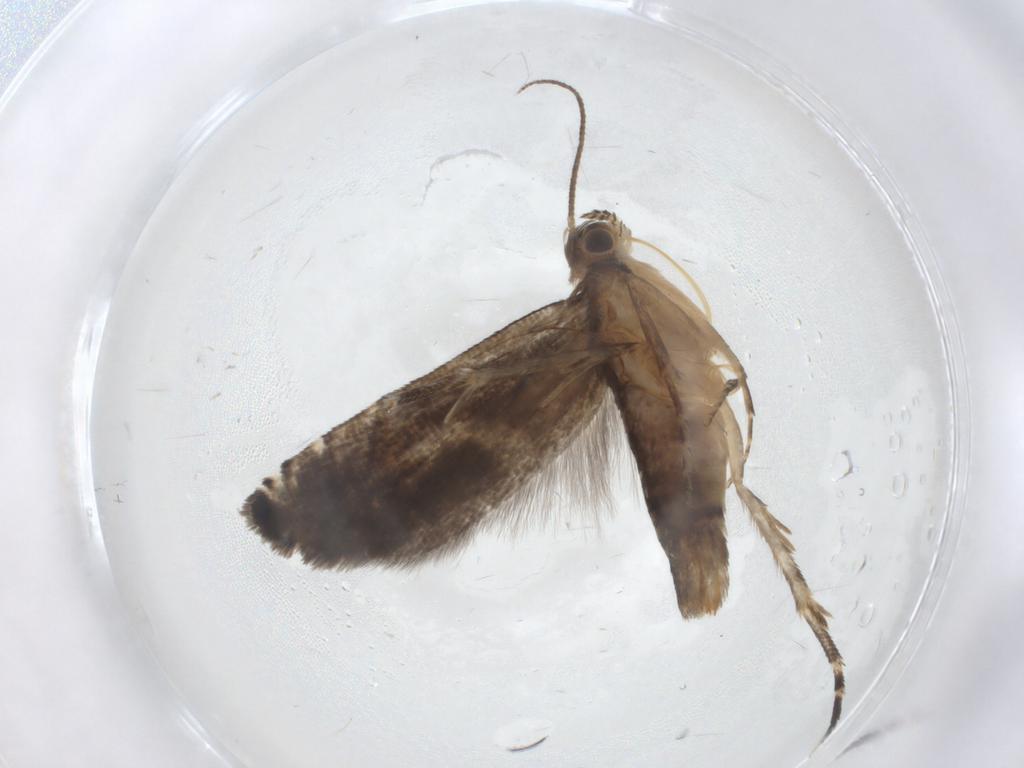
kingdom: Animalia
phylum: Arthropoda
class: Insecta
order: Lepidoptera
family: Glyphipterigidae
